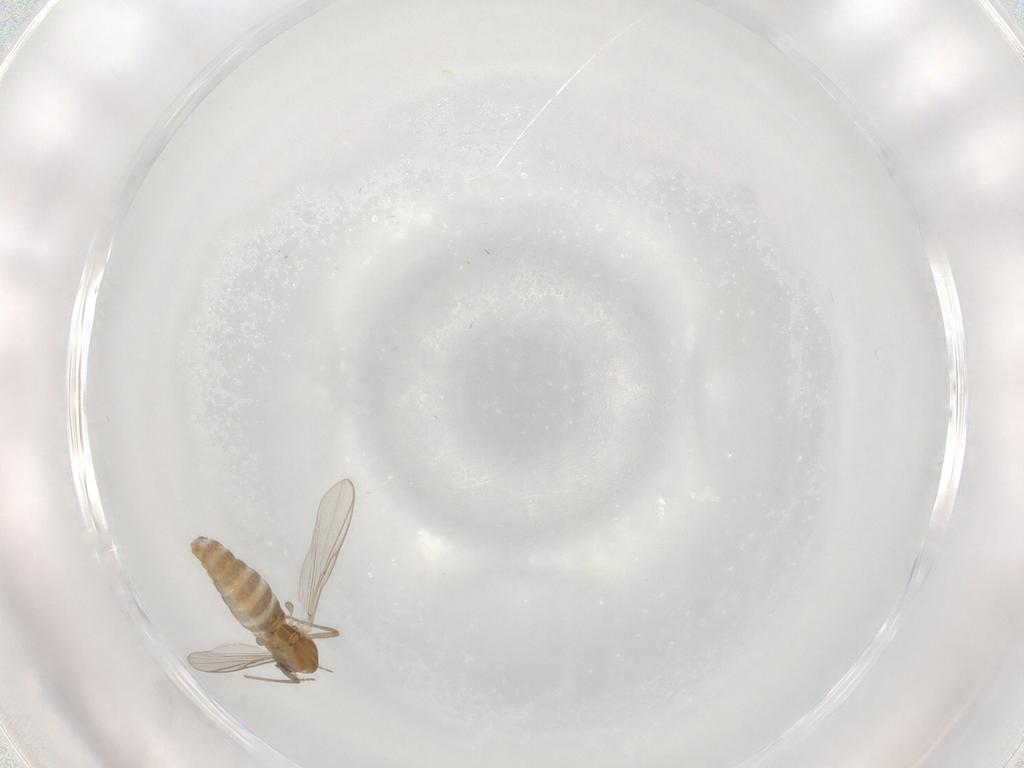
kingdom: Animalia
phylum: Arthropoda
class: Insecta
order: Diptera
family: Chironomidae
